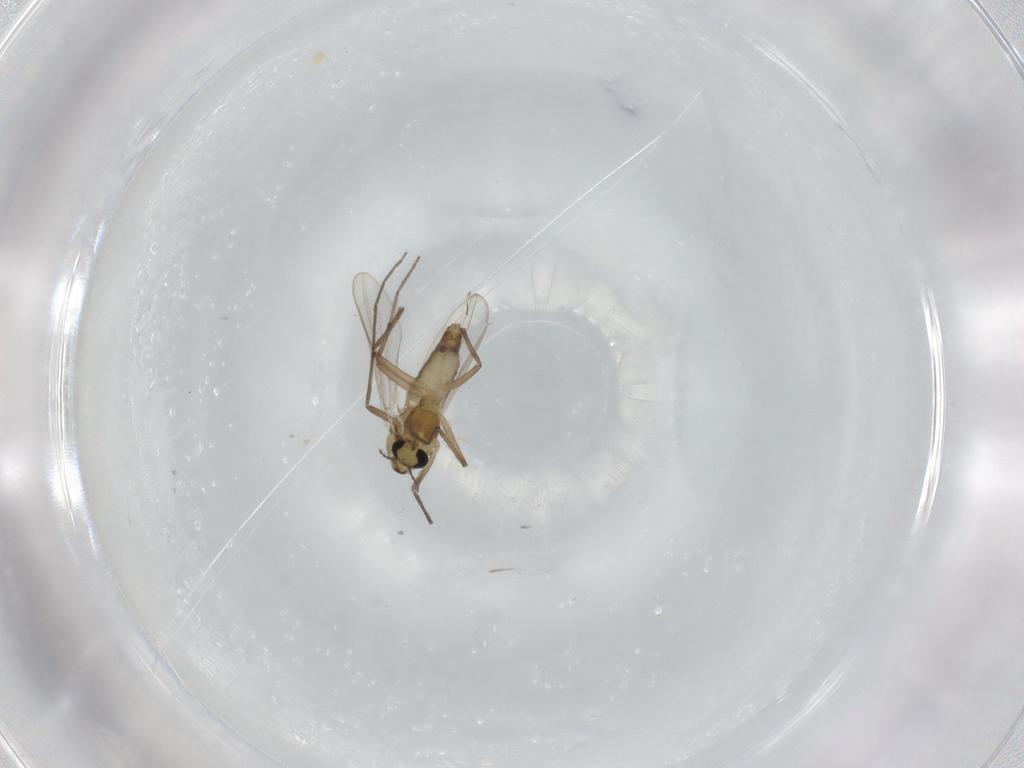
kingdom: Animalia
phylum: Arthropoda
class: Insecta
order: Diptera
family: Chironomidae
